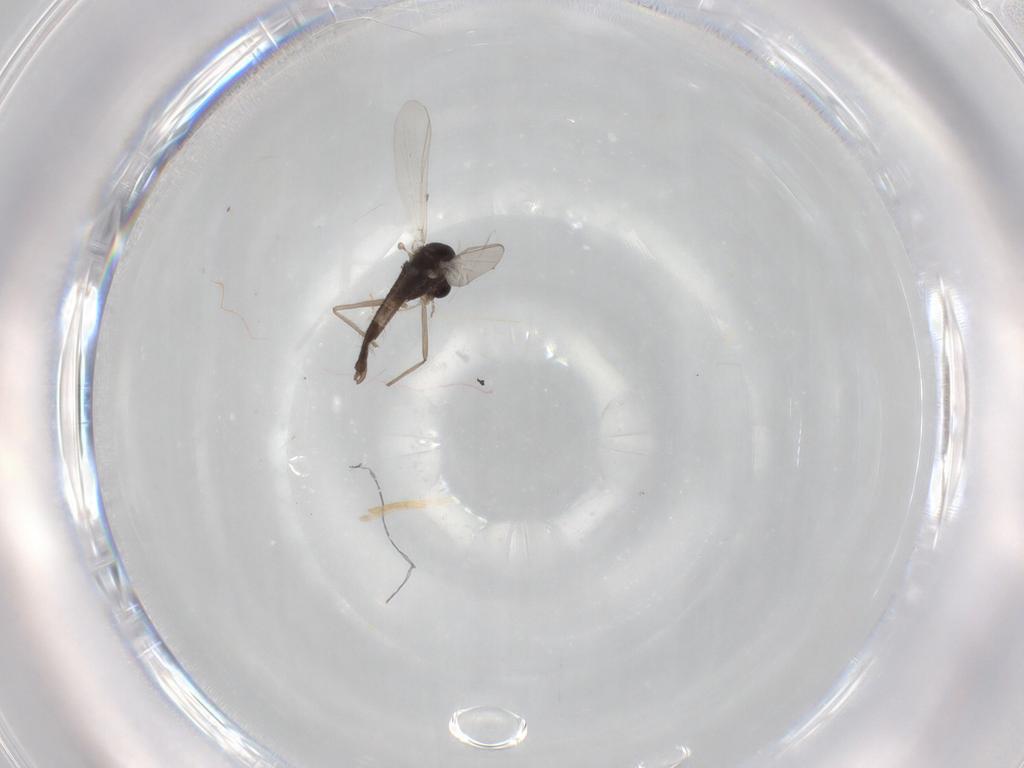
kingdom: Animalia
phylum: Arthropoda
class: Insecta
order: Diptera
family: Chironomidae
